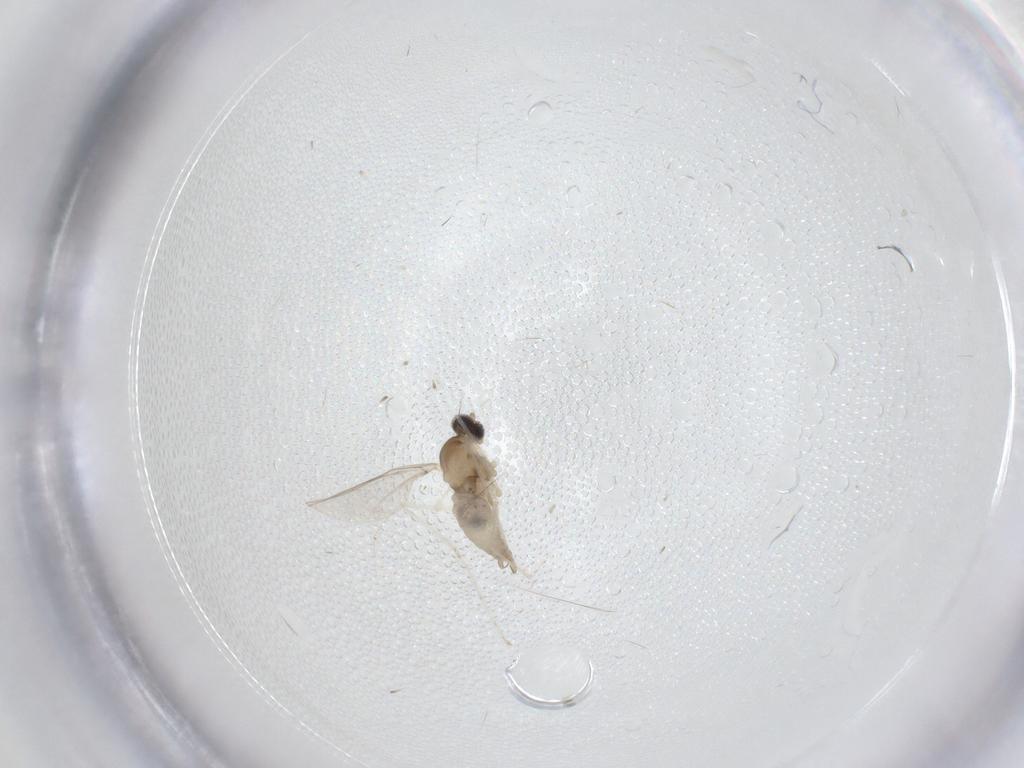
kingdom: Animalia
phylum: Arthropoda
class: Insecta
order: Diptera
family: Cecidomyiidae
